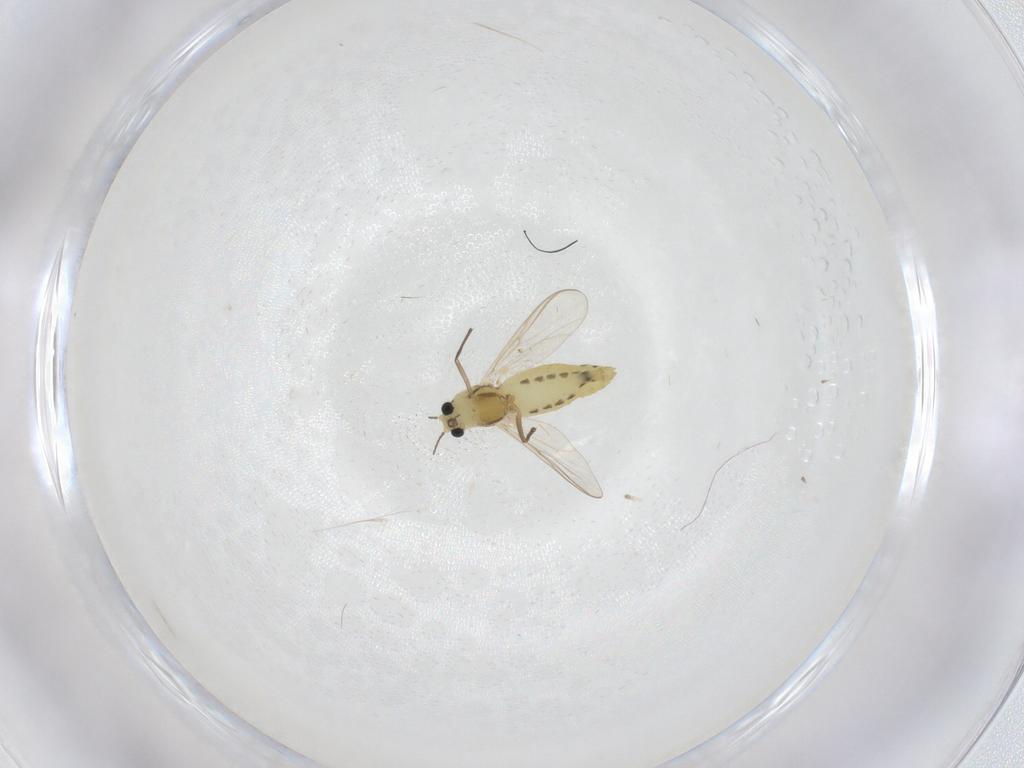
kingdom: Animalia
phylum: Arthropoda
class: Insecta
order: Diptera
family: Chironomidae
